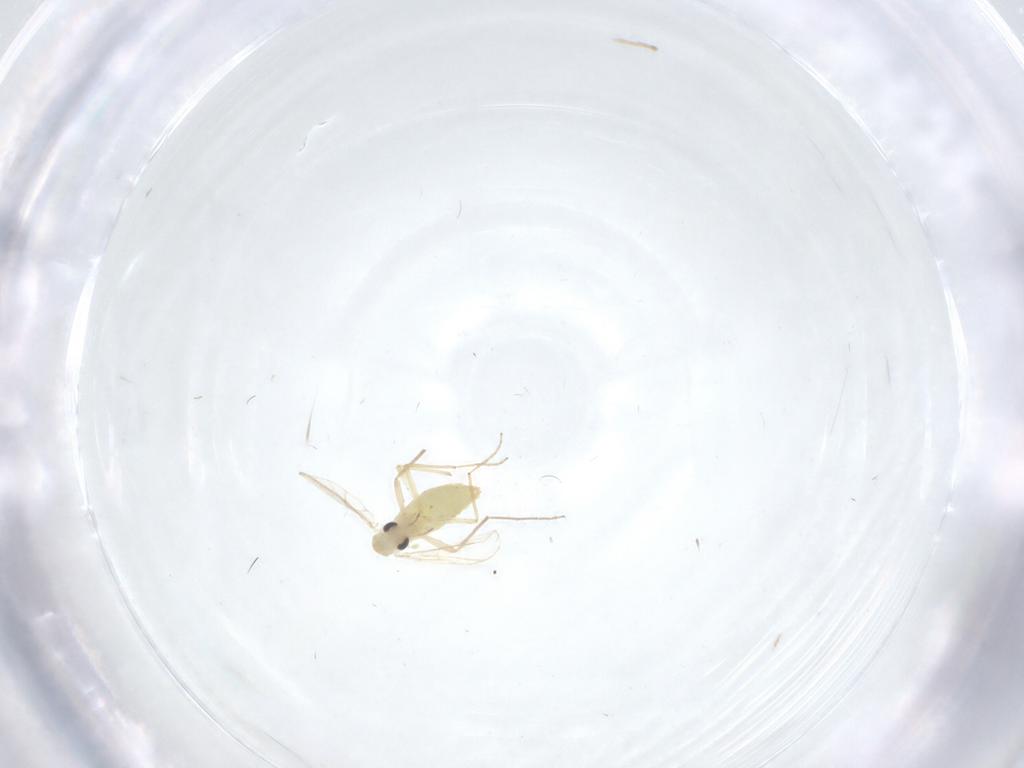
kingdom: Animalia
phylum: Arthropoda
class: Insecta
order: Diptera
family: Chironomidae
